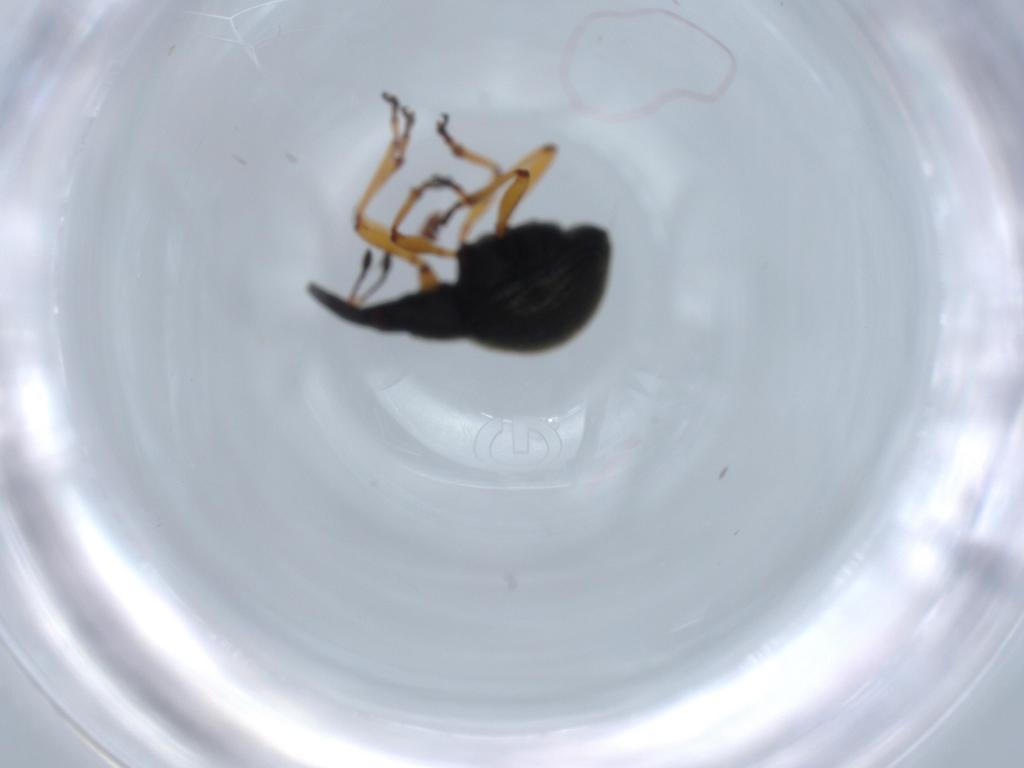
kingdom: Animalia
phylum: Arthropoda
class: Insecta
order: Coleoptera
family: Brentidae
